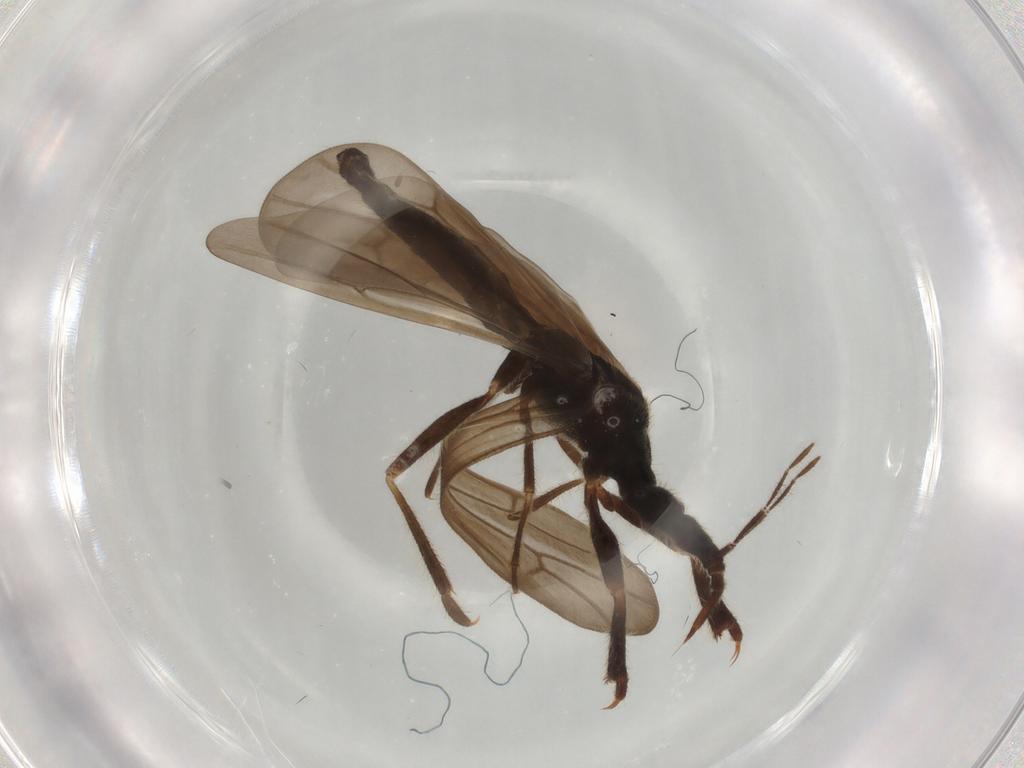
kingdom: Animalia
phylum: Arthropoda
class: Insecta
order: Hemiptera
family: Enicocephalidae
